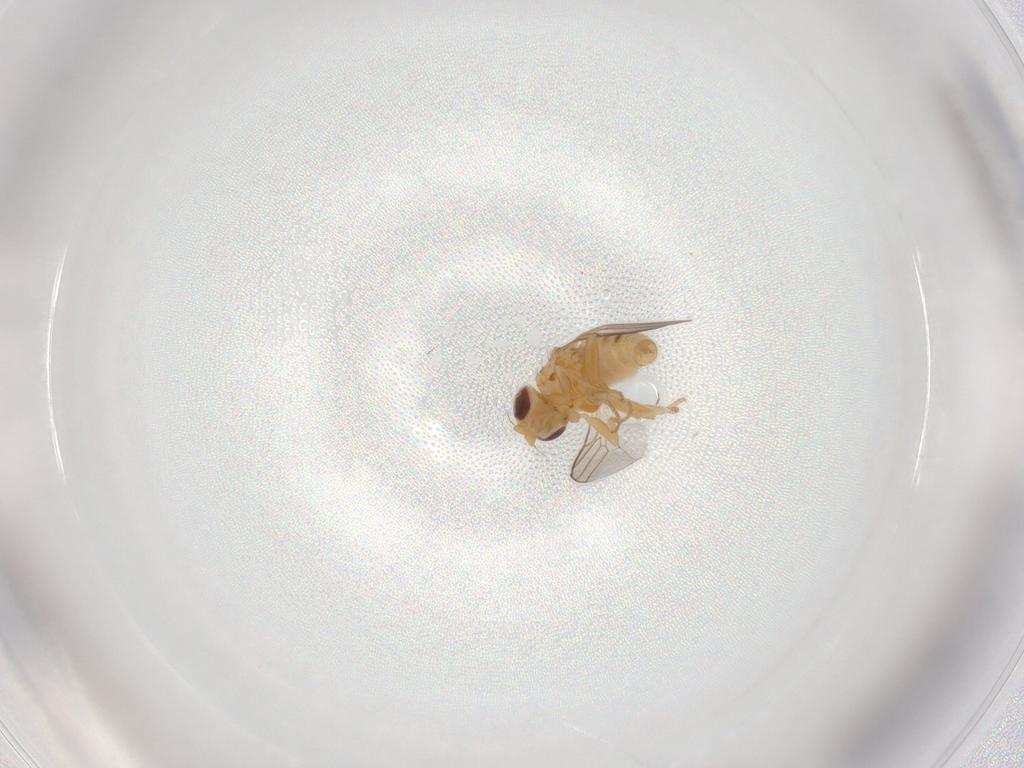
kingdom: Animalia
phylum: Arthropoda
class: Insecta
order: Diptera
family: Chloropidae
